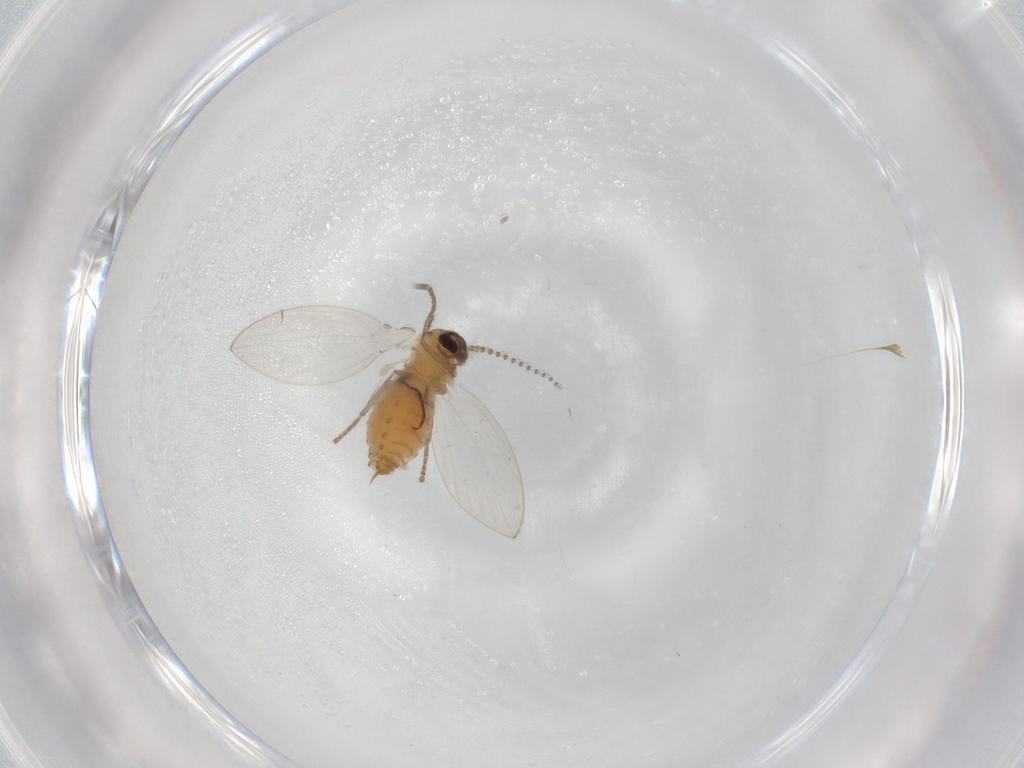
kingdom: Animalia
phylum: Arthropoda
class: Insecta
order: Diptera
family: Psychodidae
